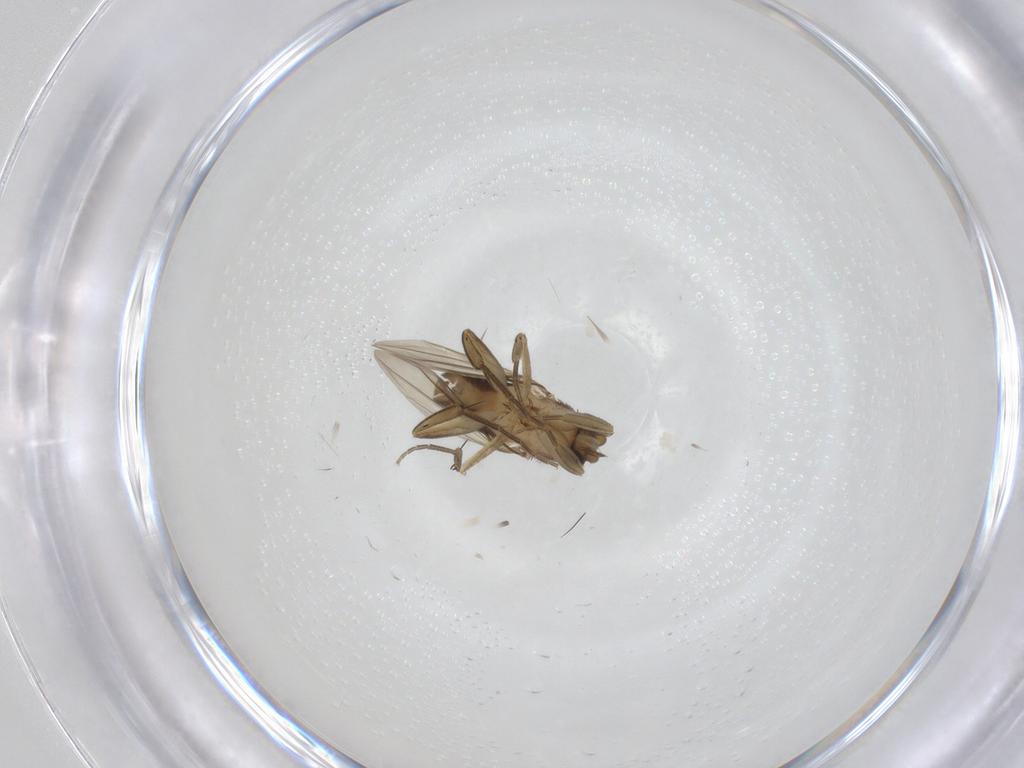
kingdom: Animalia
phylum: Arthropoda
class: Insecta
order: Diptera
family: Phoridae
